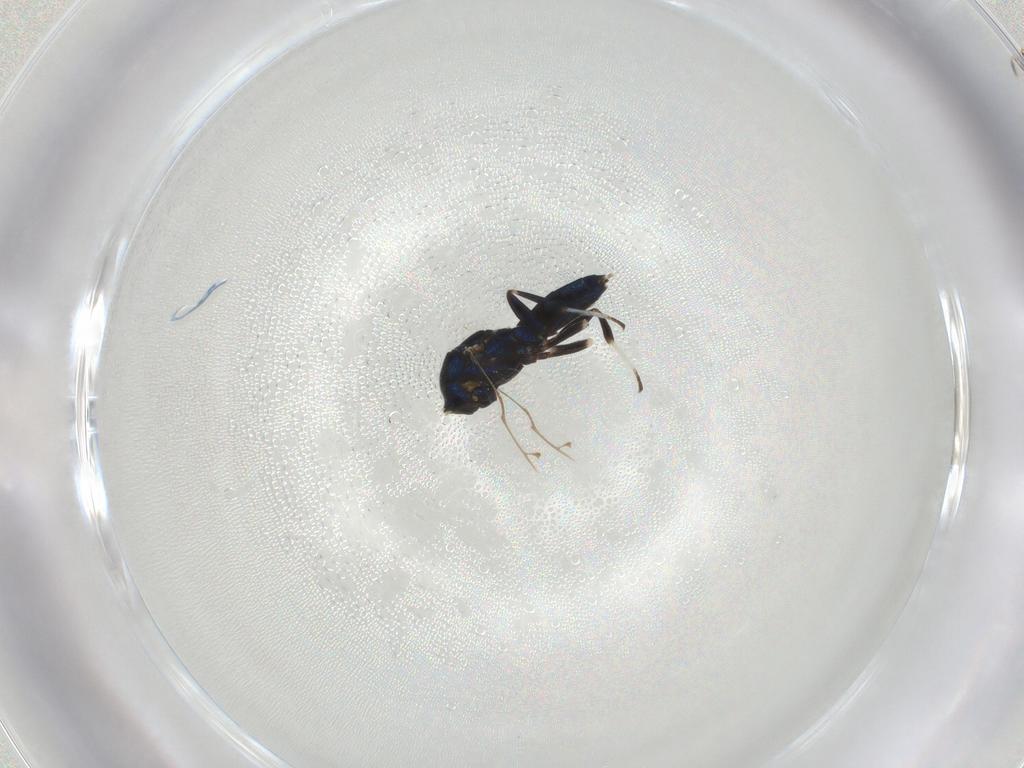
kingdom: Animalia
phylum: Arthropoda
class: Insecta
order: Hymenoptera
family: Eupelmidae
